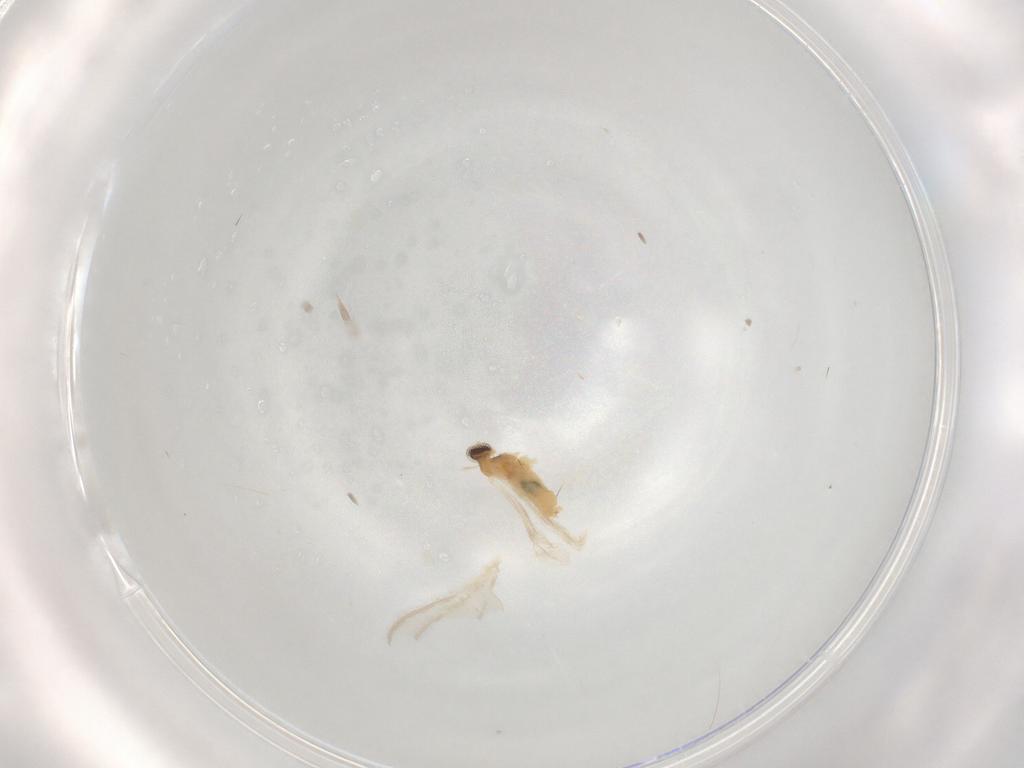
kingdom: Animalia
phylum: Arthropoda
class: Insecta
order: Diptera
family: Cecidomyiidae
